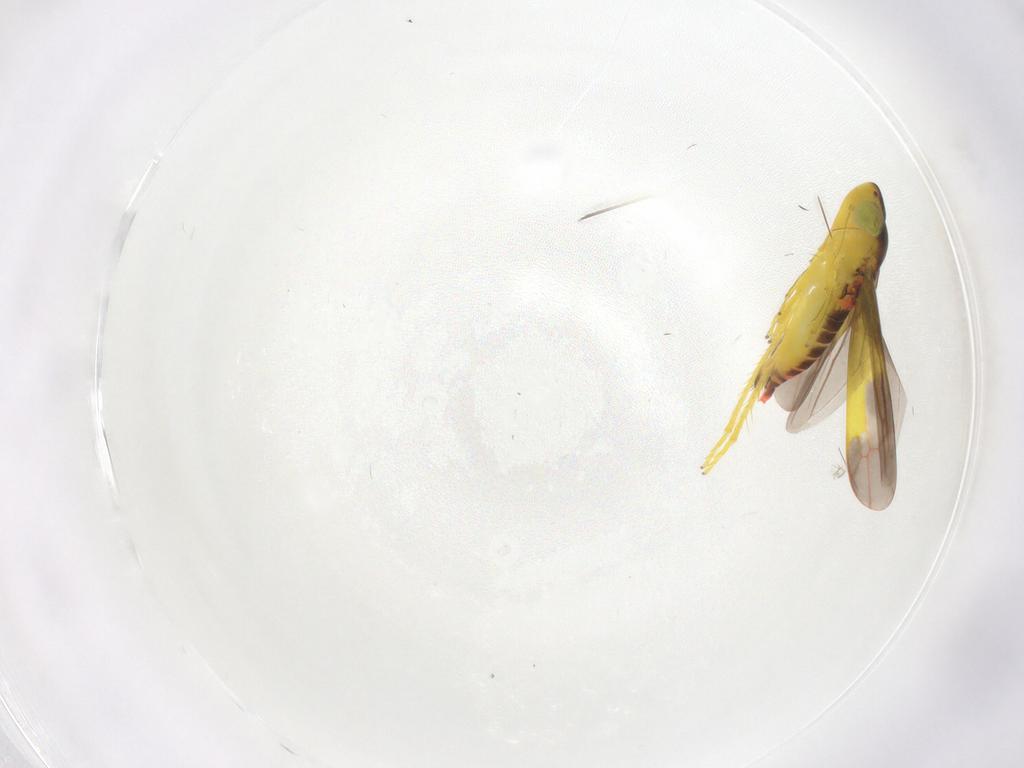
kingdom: Animalia
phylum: Arthropoda
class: Insecta
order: Hemiptera
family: Cicadellidae
